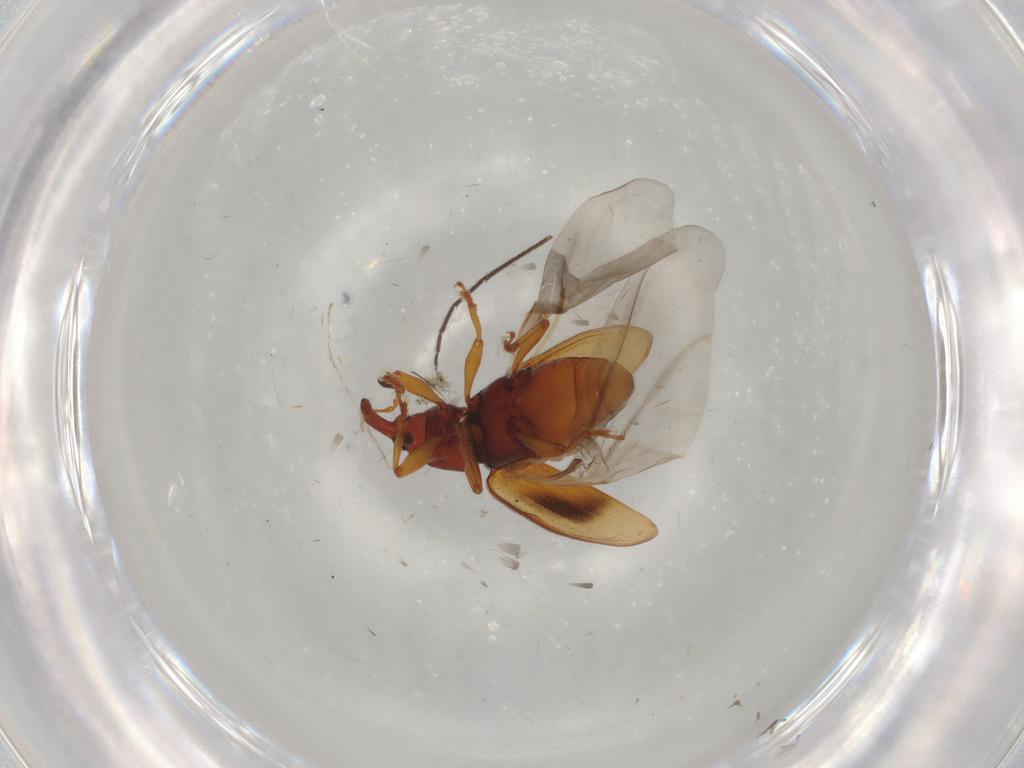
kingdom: Animalia
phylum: Arthropoda
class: Insecta
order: Coleoptera
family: Curculionidae
